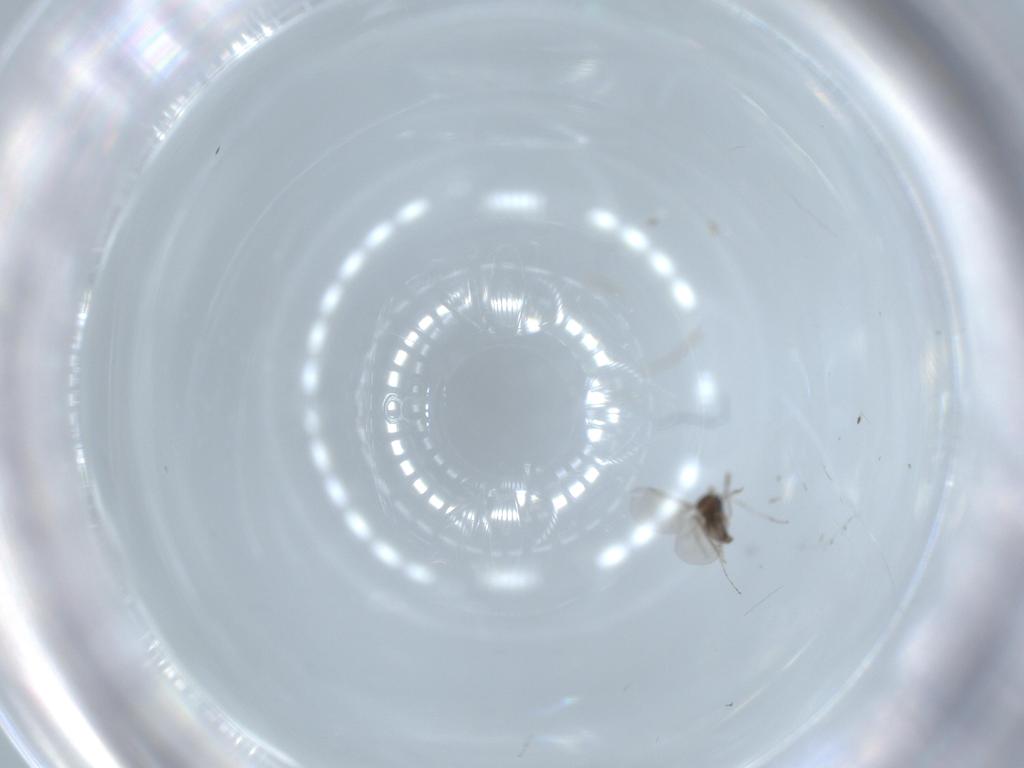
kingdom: Animalia
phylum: Arthropoda
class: Insecta
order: Diptera
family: Cecidomyiidae
